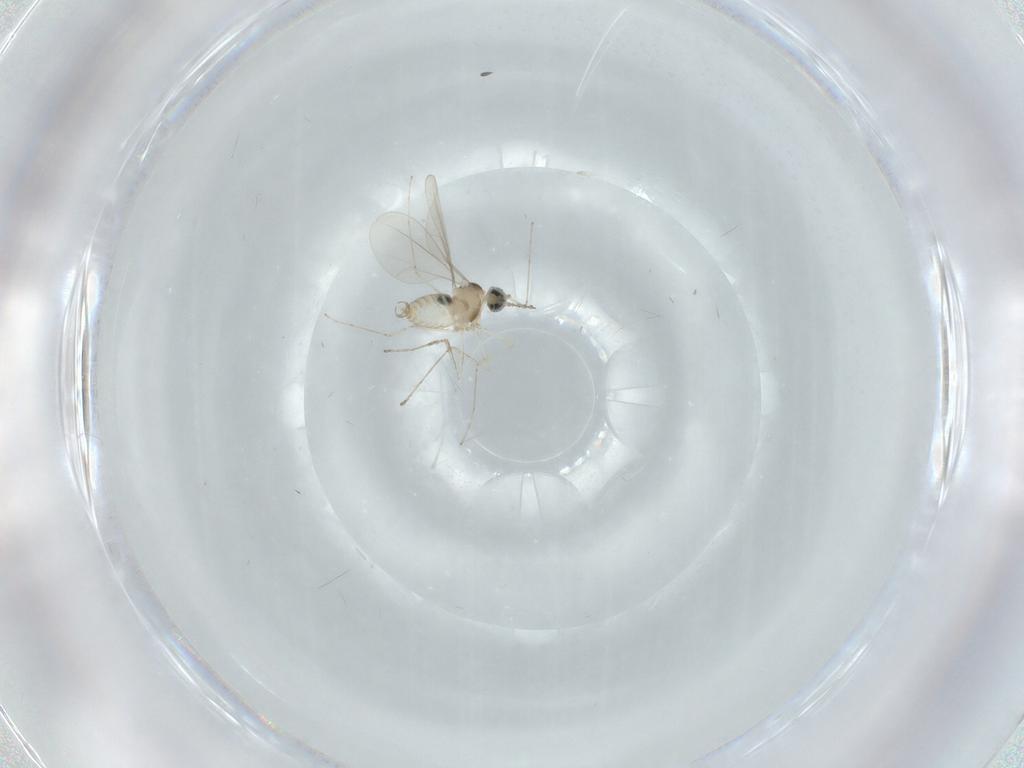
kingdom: Animalia
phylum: Arthropoda
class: Insecta
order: Diptera
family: Cecidomyiidae
